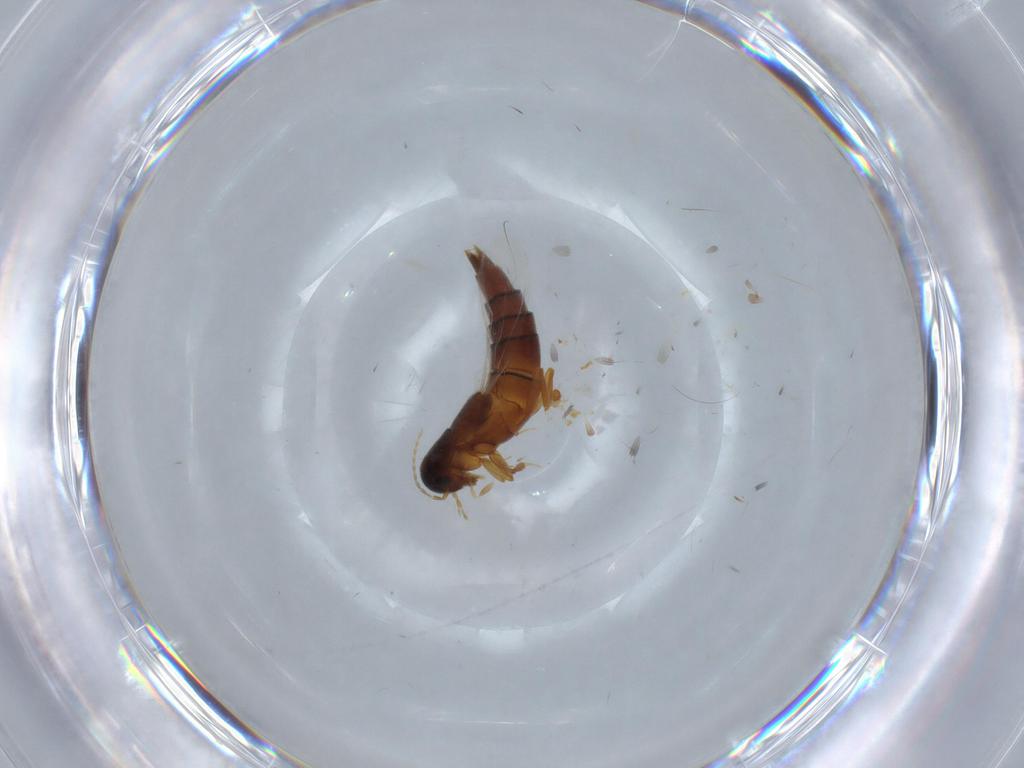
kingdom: Animalia
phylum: Arthropoda
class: Insecta
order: Coleoptera
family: Staphylinidae
